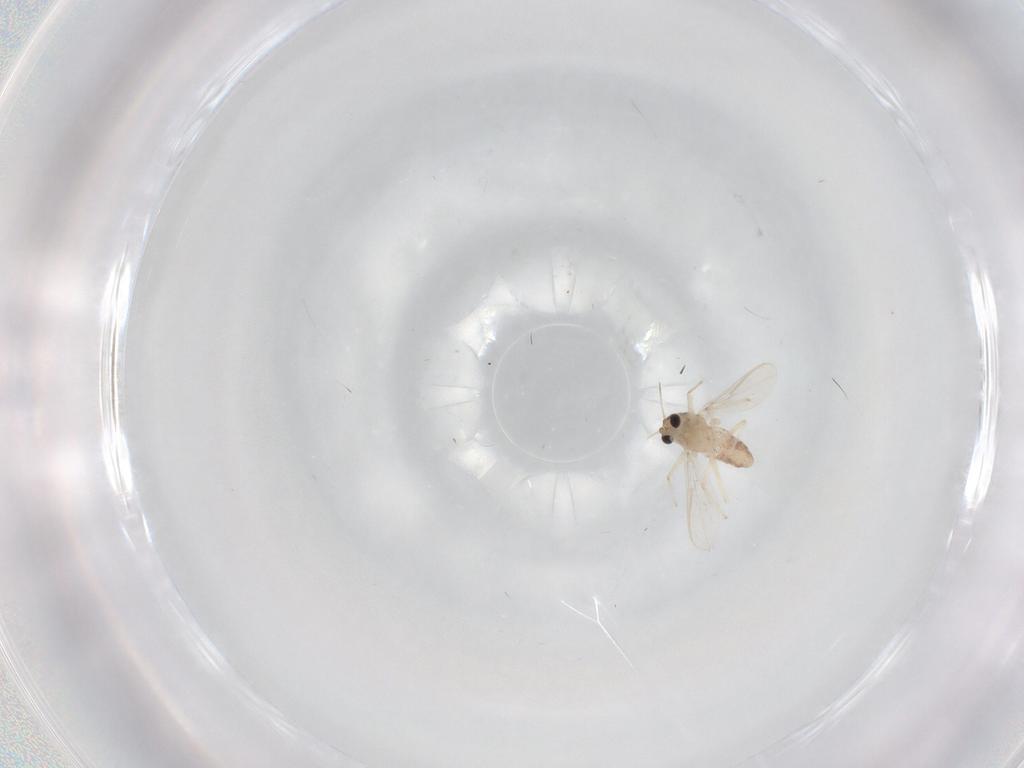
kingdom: Animalia
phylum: Arthropoda
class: Insecta
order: Diptera
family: Chironomidae
